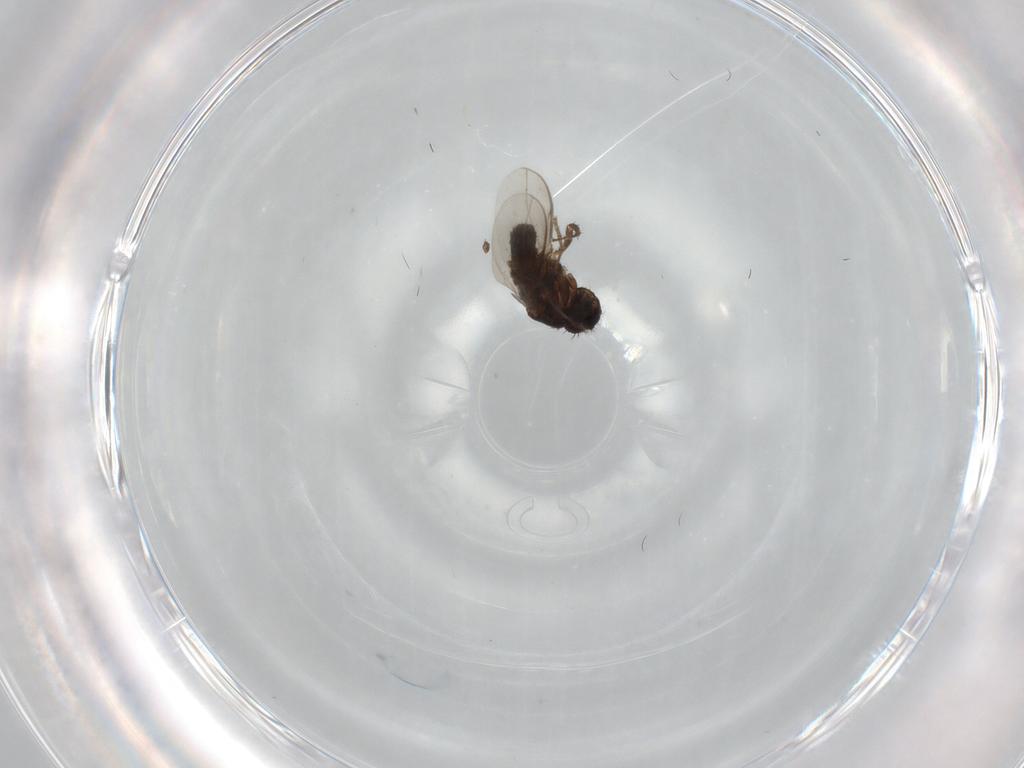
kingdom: Animalia
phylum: Arthropoda
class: Insecta
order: Diptera
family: Sphaeroceridae
